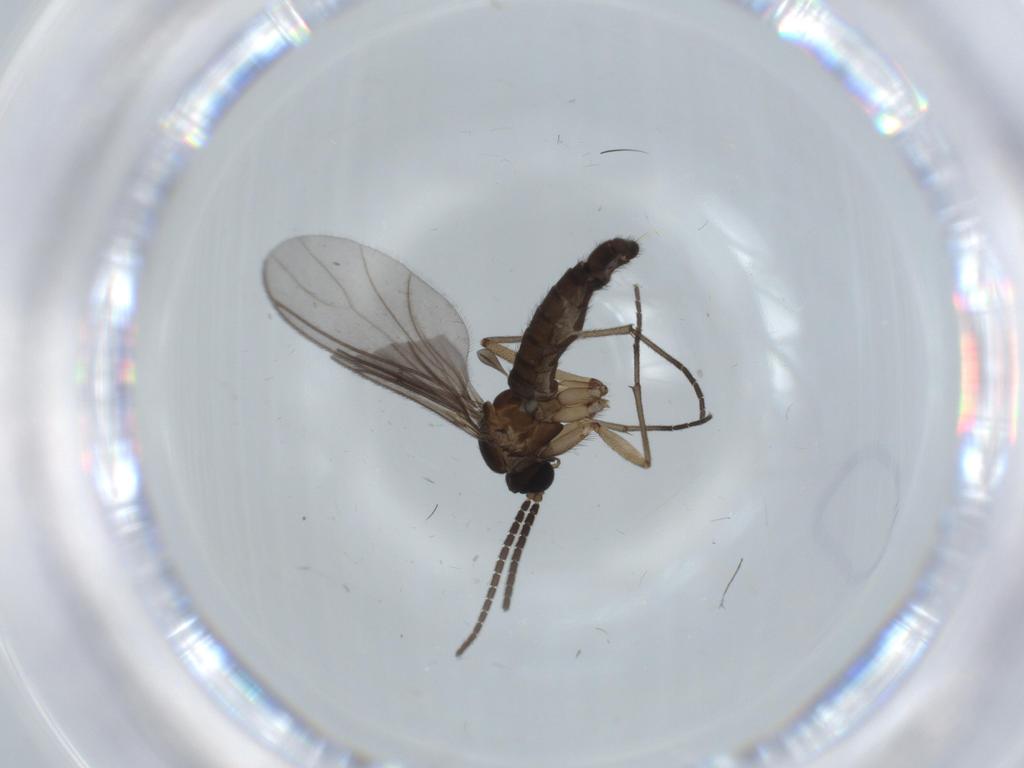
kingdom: Animalia
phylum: Arthropoda
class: Insecta
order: Diptera
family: Sciaridae
